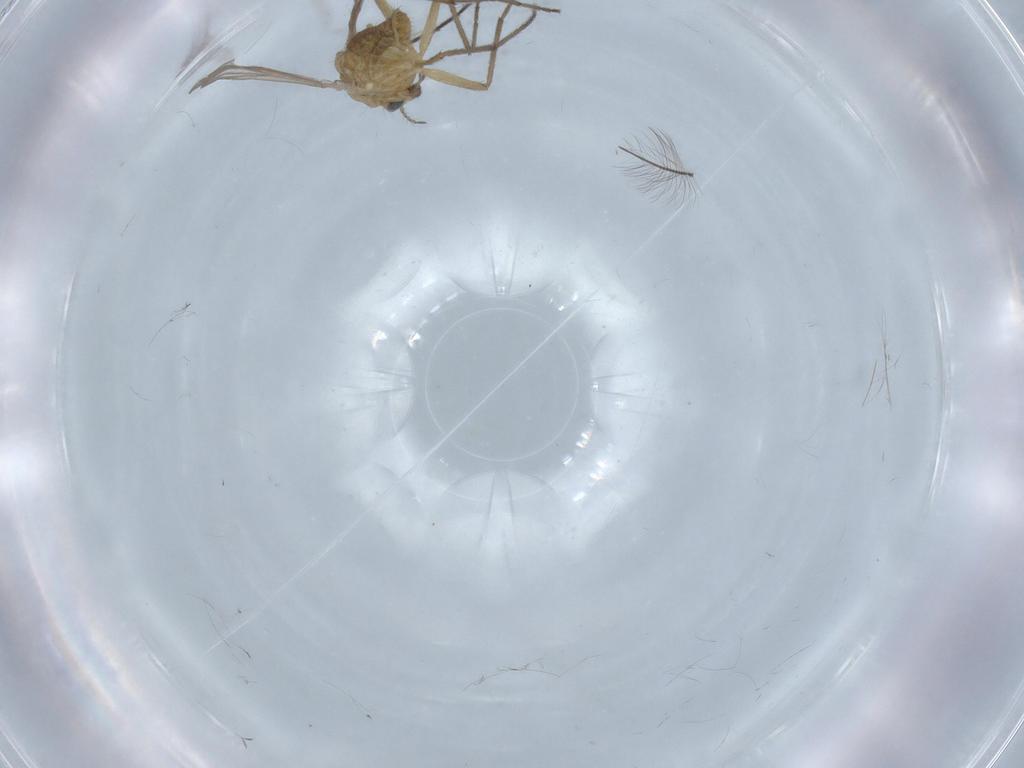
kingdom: Animalia
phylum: Arthropoda
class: Insecta
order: Diptera
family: Chironomidae
